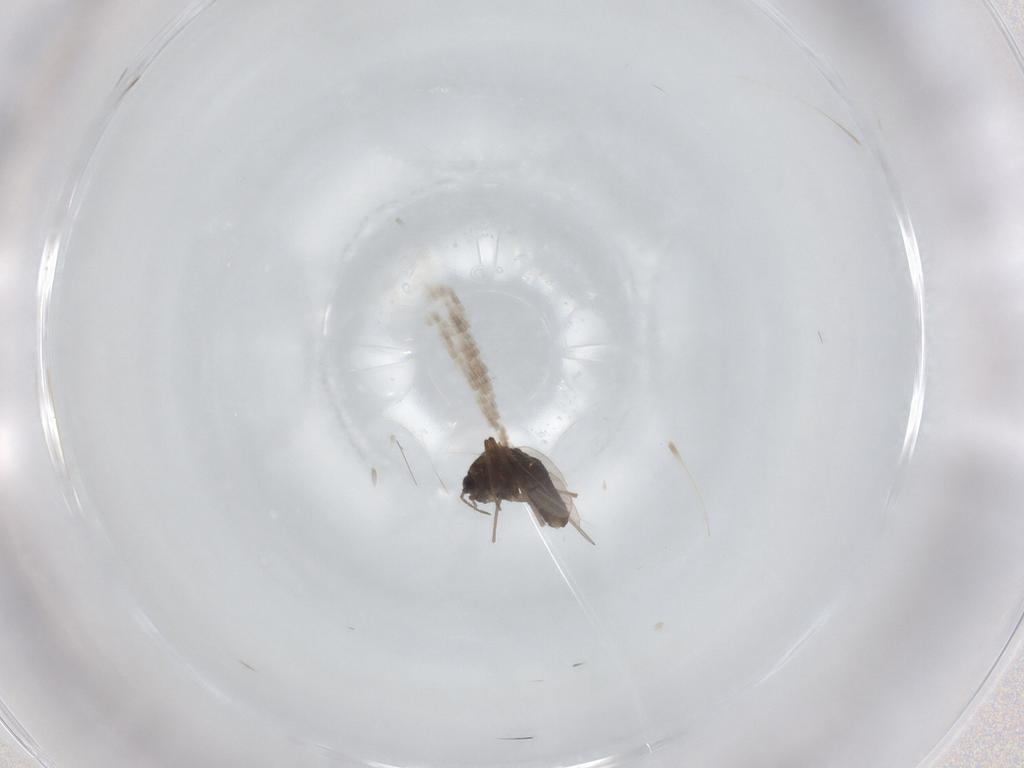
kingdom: Animalia
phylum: Arthropoda
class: Insecta
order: Diptera
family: Chironomidae
